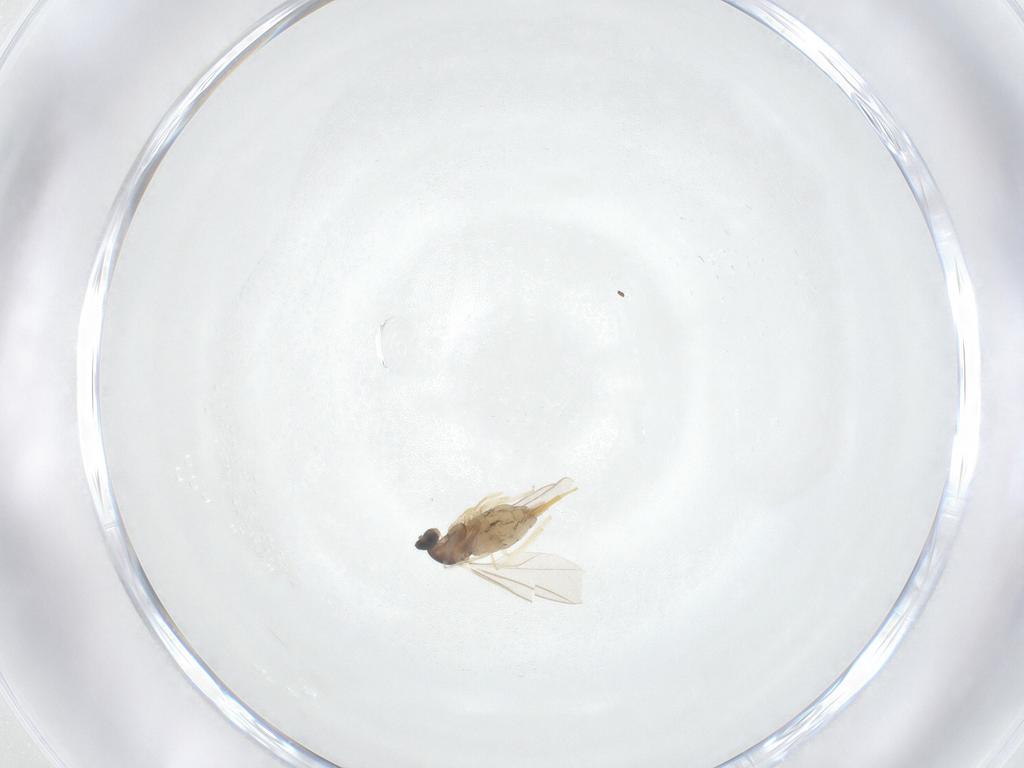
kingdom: Animalia
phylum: Arthropoda
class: Insecta
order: Diptera
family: Cecidomyiidae
